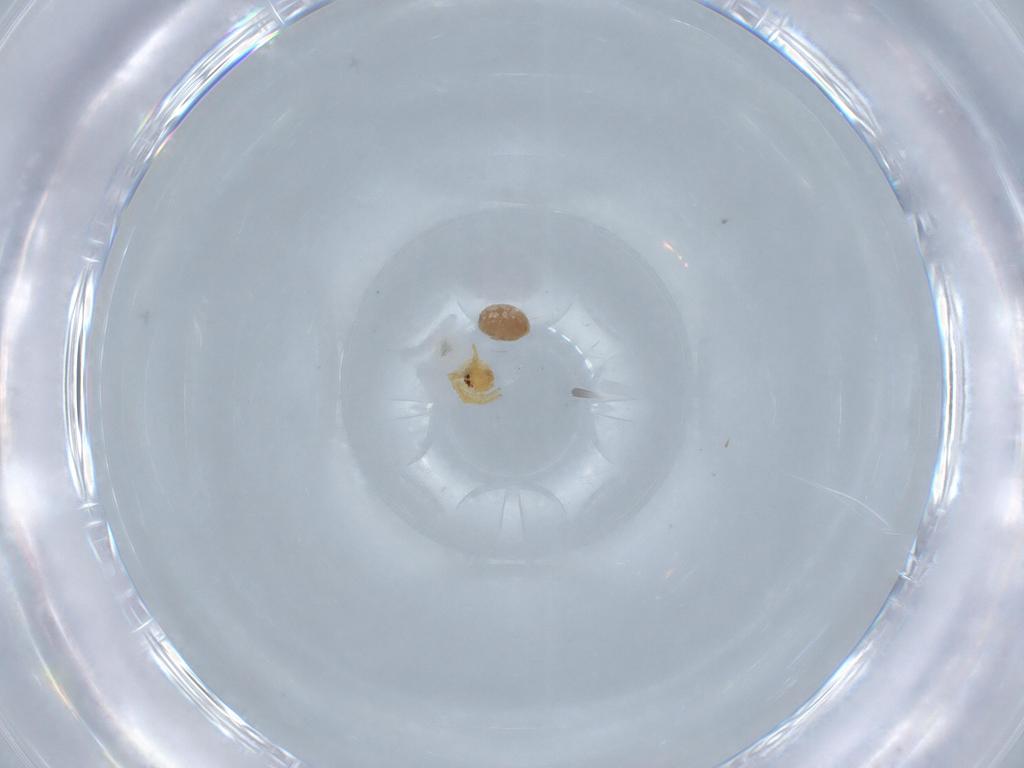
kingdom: Animalia
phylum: Arthropoda
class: Arachnida
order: Araneae
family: Theridiidae
